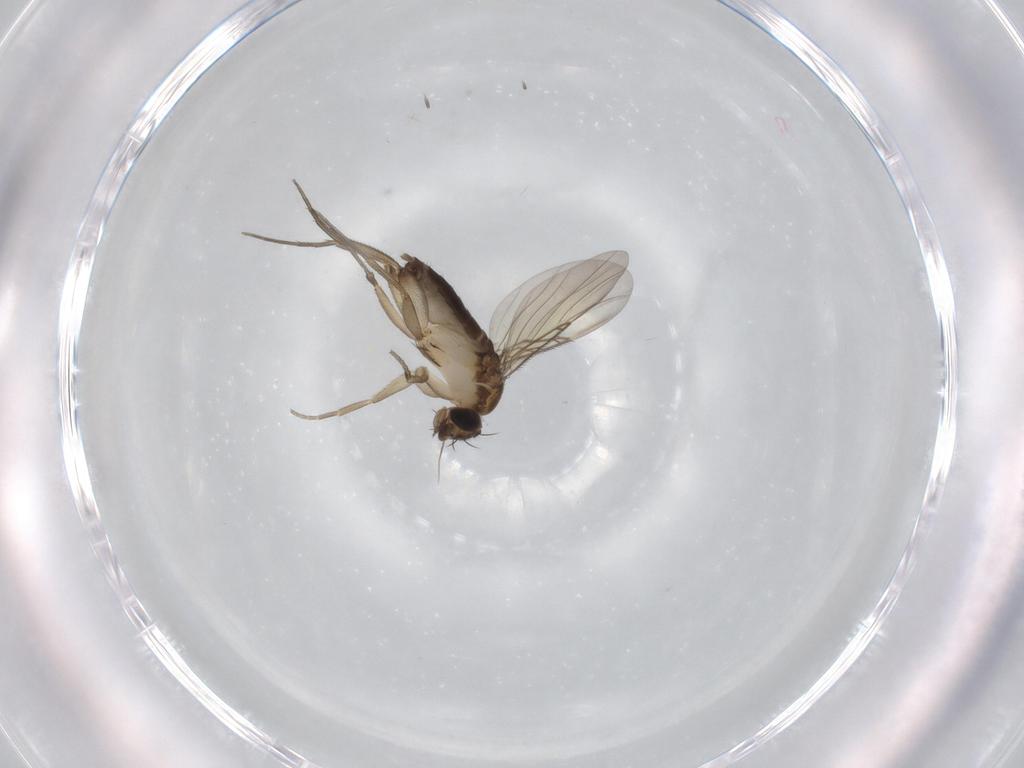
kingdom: Animalia
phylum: Arthropoda
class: Insecta
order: Diptera
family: Phoridae
